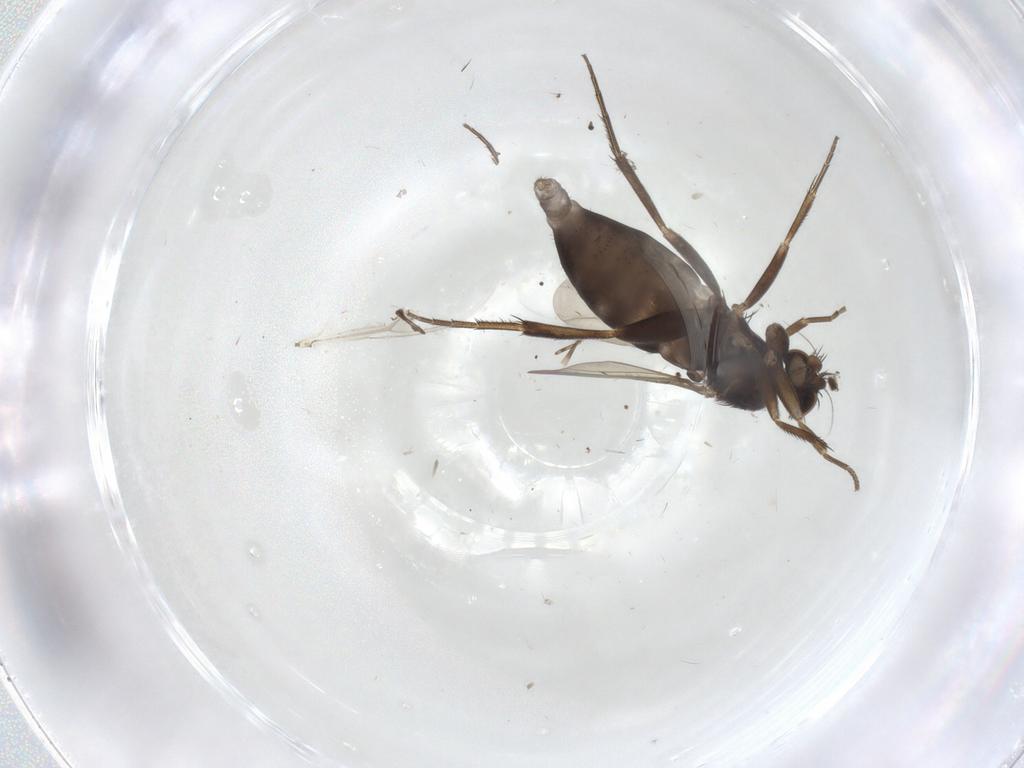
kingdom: Animalia
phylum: Arthropoda
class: Insecta
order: Diptera
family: Phoridae
